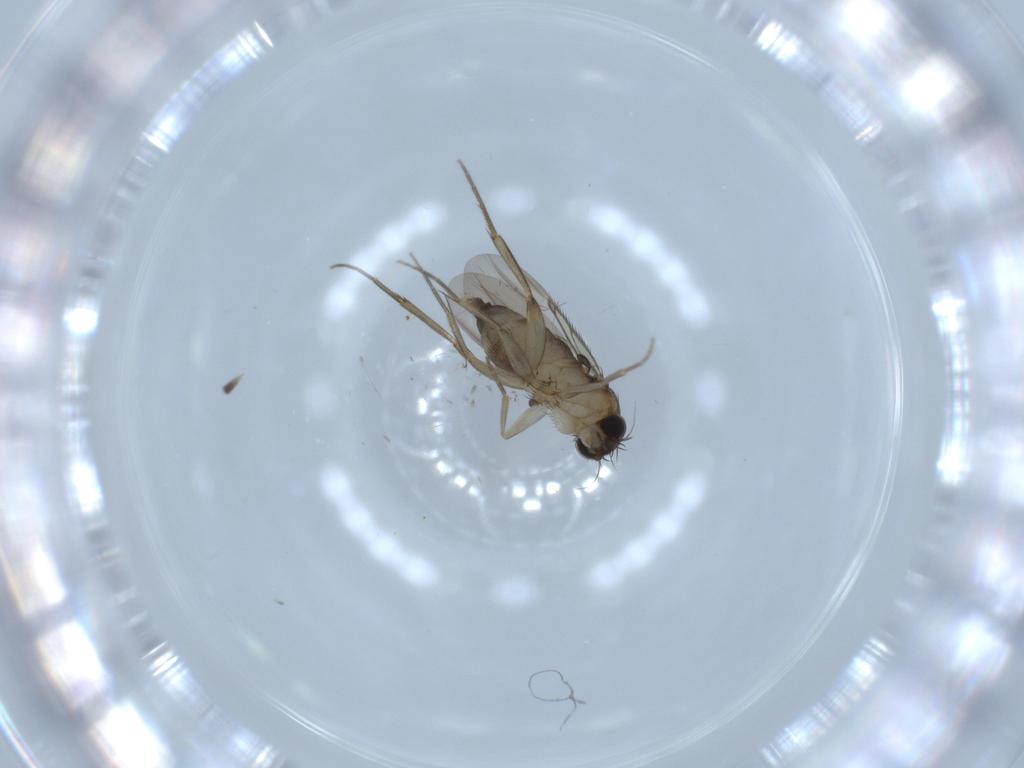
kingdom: Animalia
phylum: Arthropoda
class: Insecta
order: Diptera
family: Phoridae
